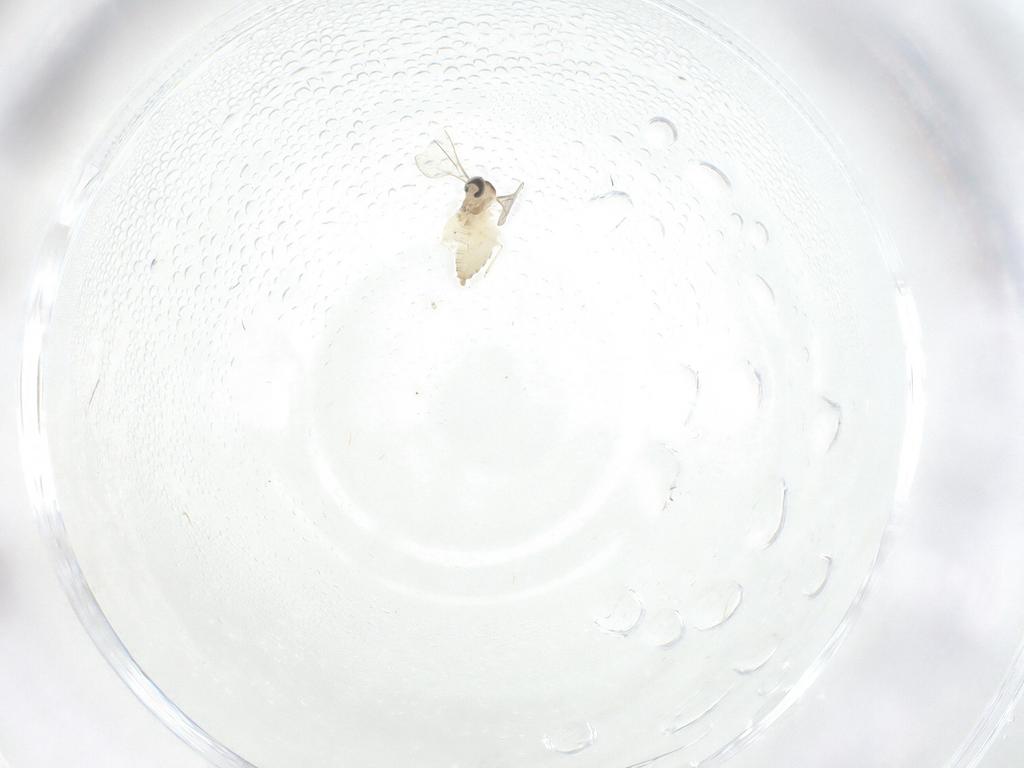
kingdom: Animalia
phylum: Arthropoda
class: Insecta
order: Diptera
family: Cecidomyiidae
